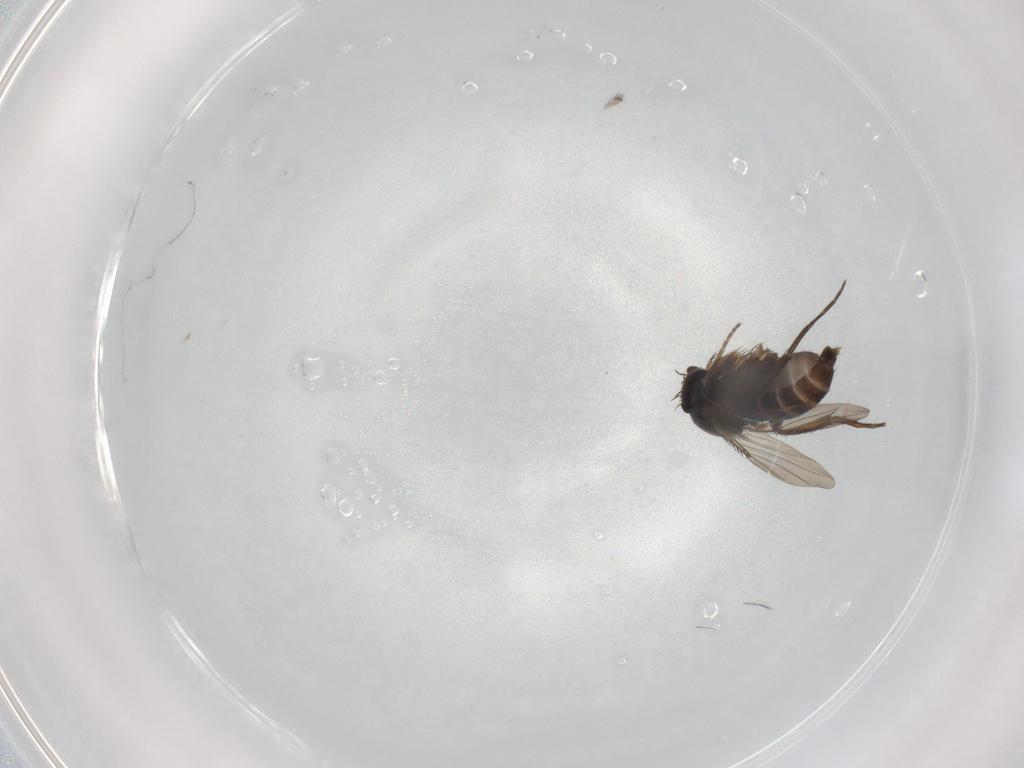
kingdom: Animalia
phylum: Arthropoda
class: Insecta
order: Diptera
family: Phoridae
